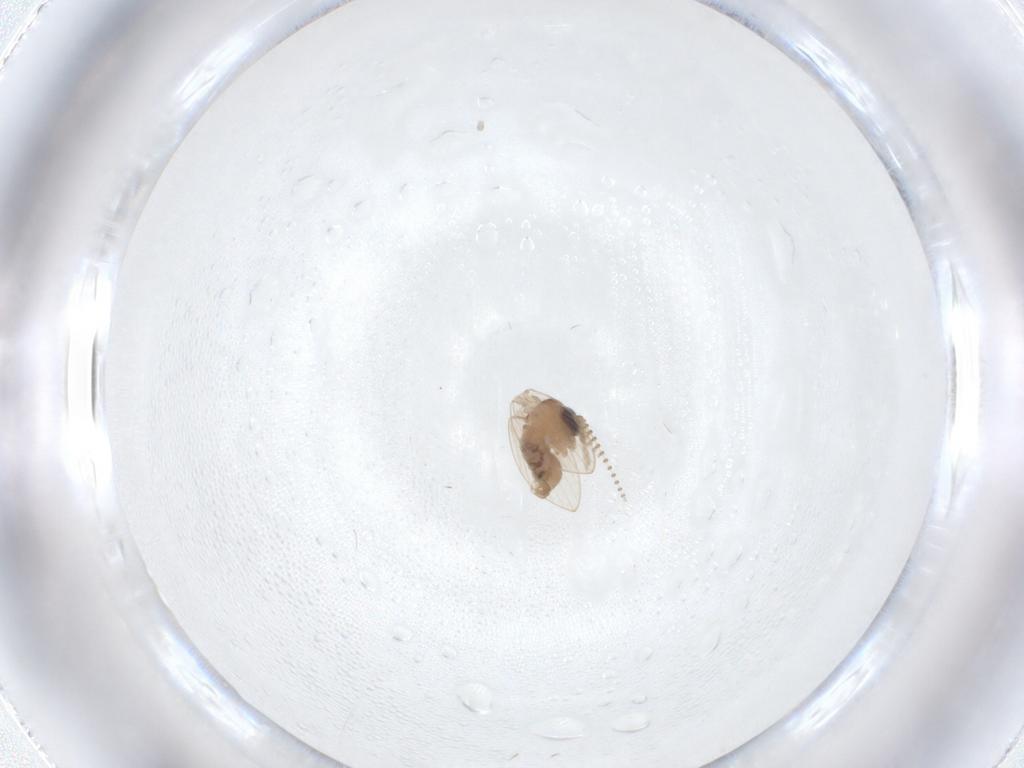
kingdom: Animalia
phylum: Arthropoda
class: Insecta
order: Diptera
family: Psychodidae
